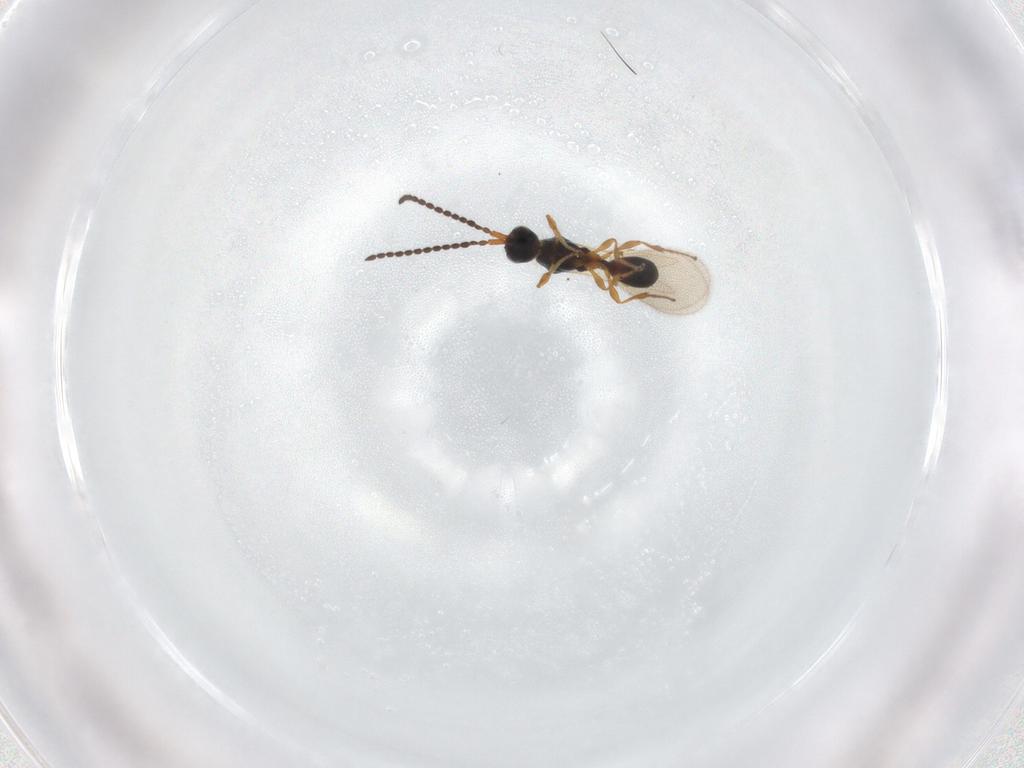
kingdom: Animalia
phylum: Arthropoda
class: Insecta
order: Hymenoptera
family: Diapriidae
